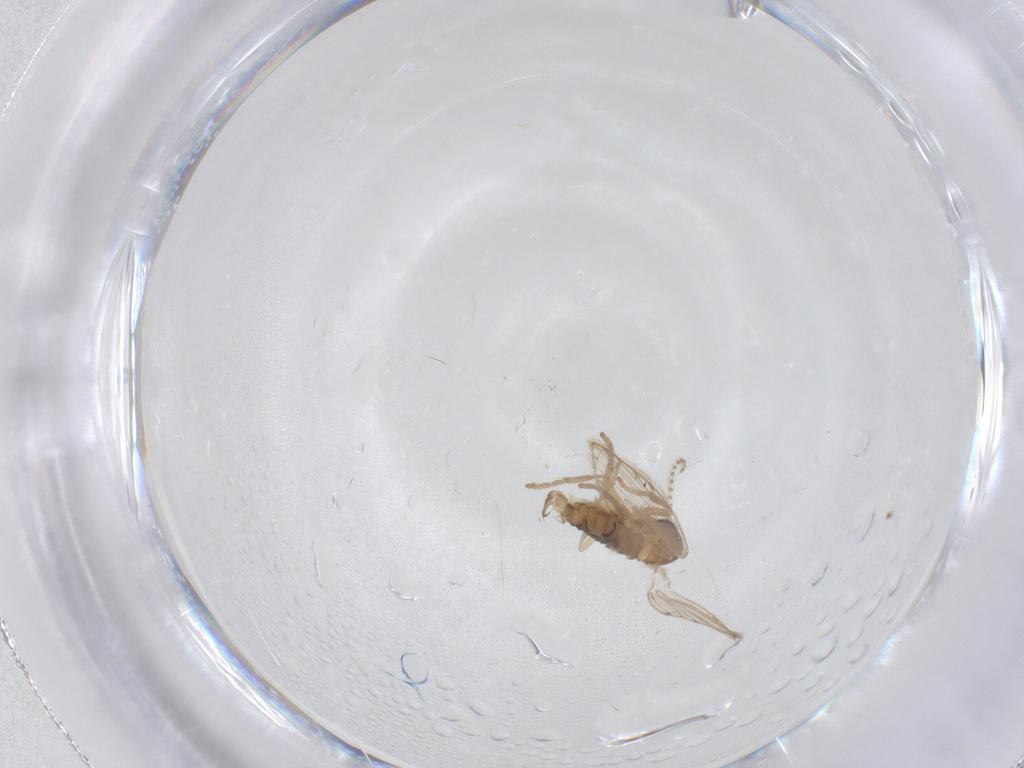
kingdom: Animalia
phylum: Arthropoda
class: Insecta
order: Diptera
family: Psychodidae
